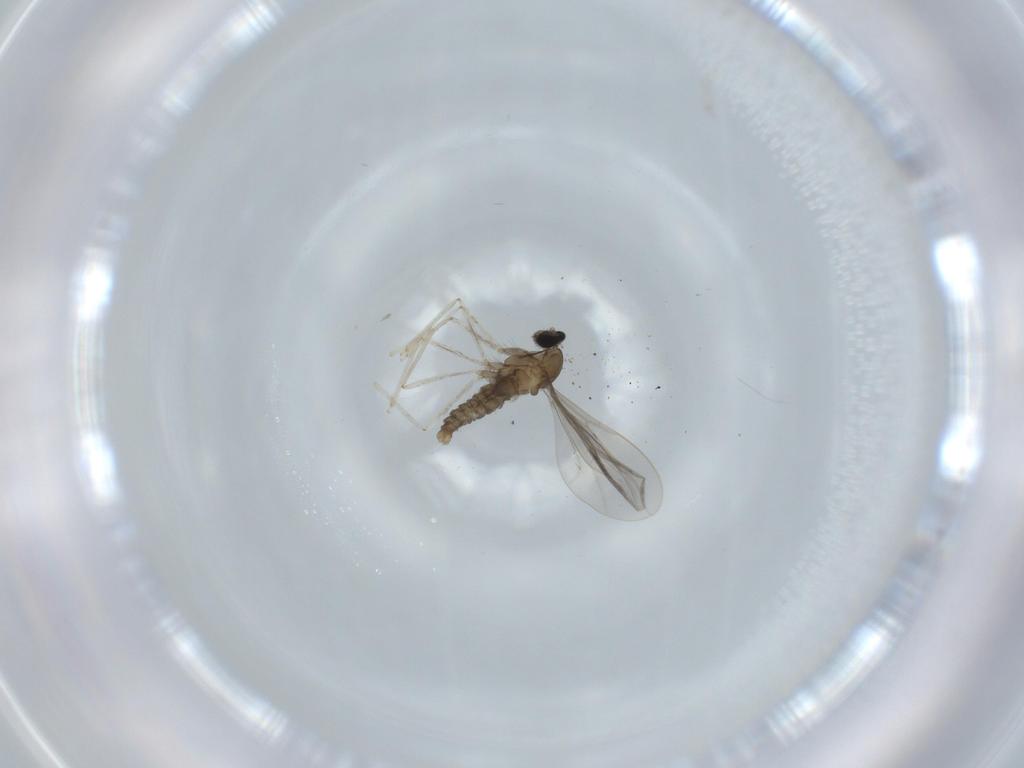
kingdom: Animalia
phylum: Arthropoda
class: Insecta
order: Diptera
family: Cecidomyiidae
